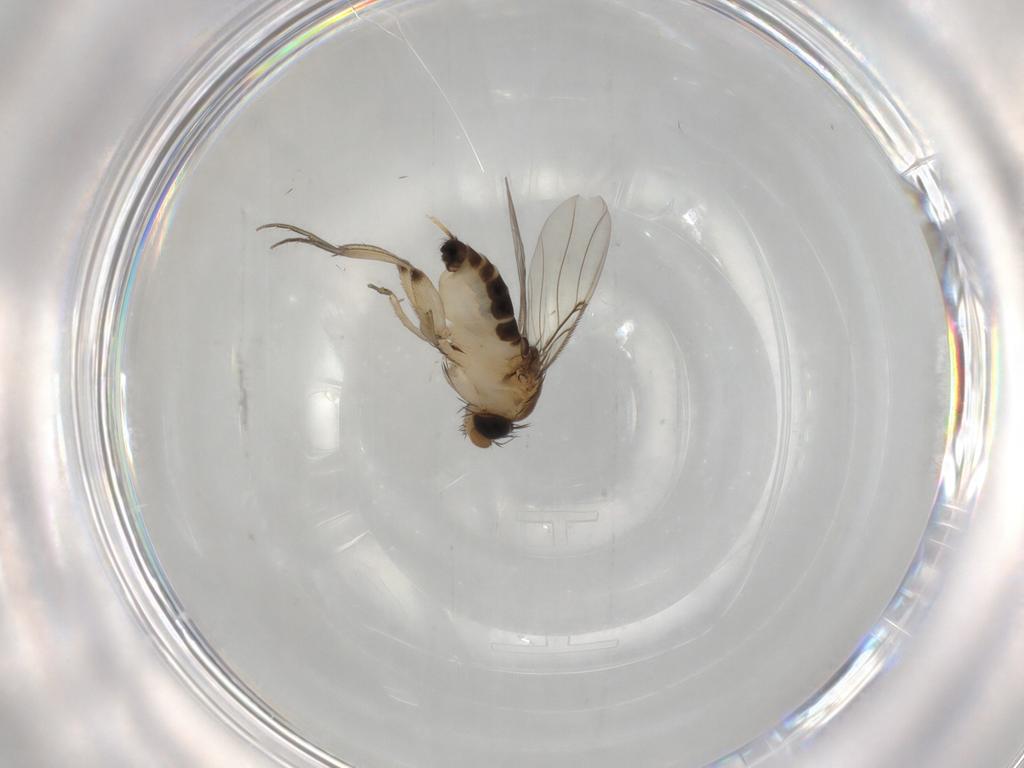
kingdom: Animalia
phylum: Arthropoda
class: Insecta
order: Diptera
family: Phoridae
